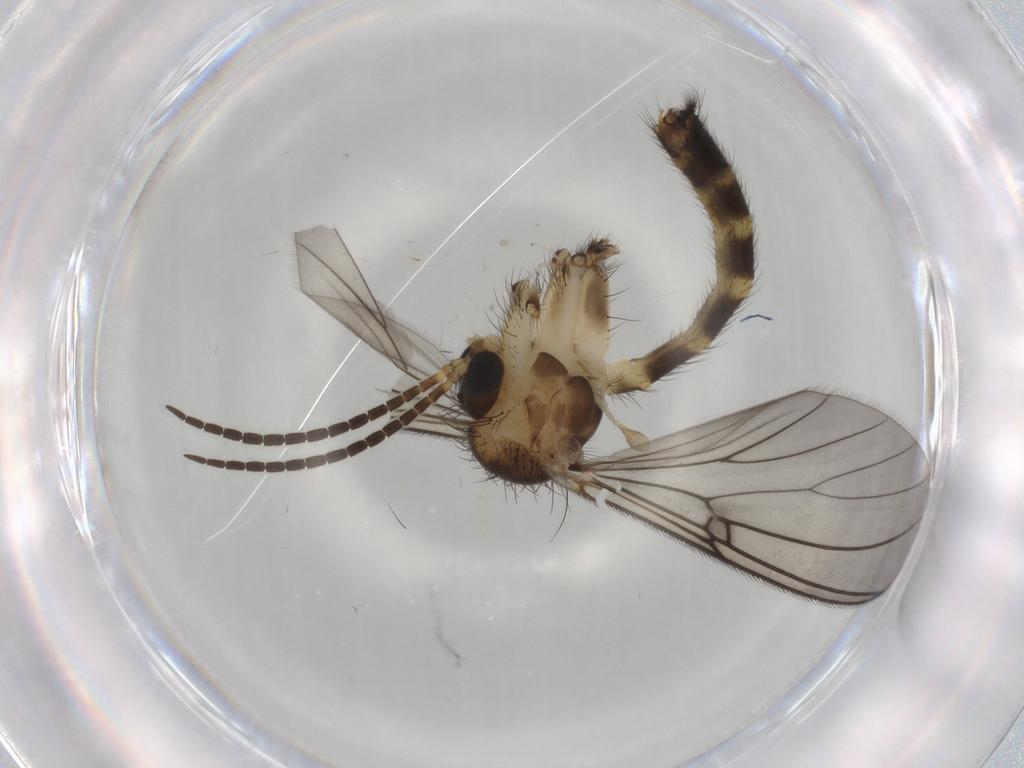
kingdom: Animalia
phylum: Arthropoda
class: Insecta
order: Diptera
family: Mycetophilidae
